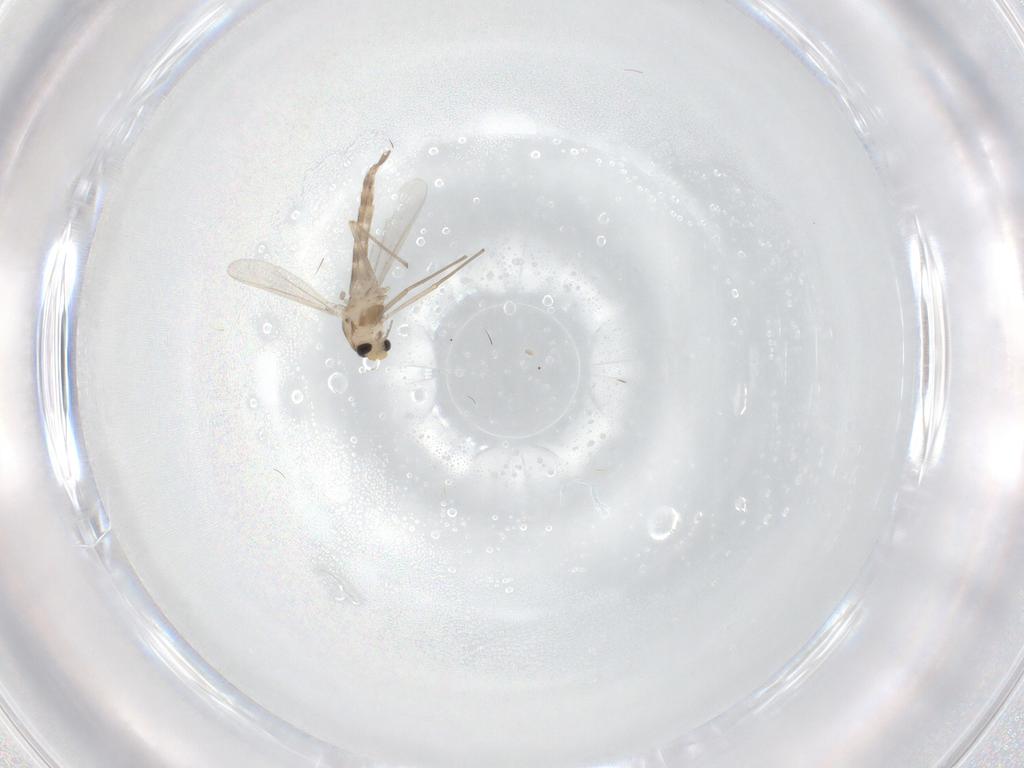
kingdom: Animalia
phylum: Arthropoda
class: Insecta
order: Diptera
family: Chironomidae
